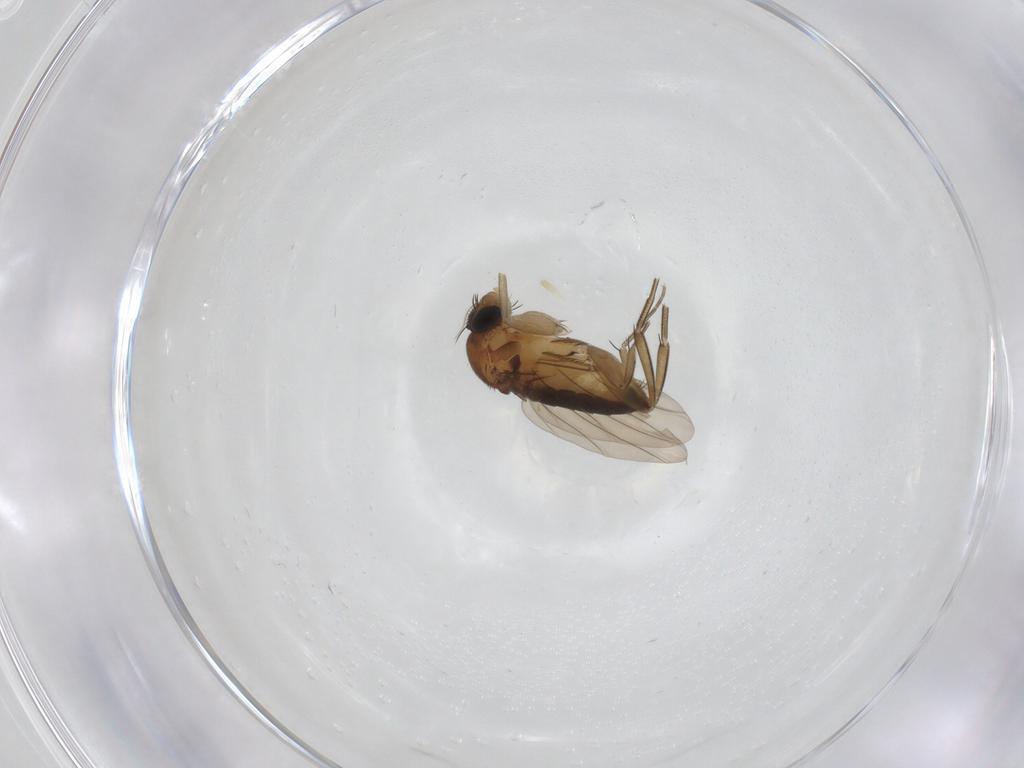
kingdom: Animalia
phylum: Arthropoda
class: Insecta
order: Diptera
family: Phoridae
